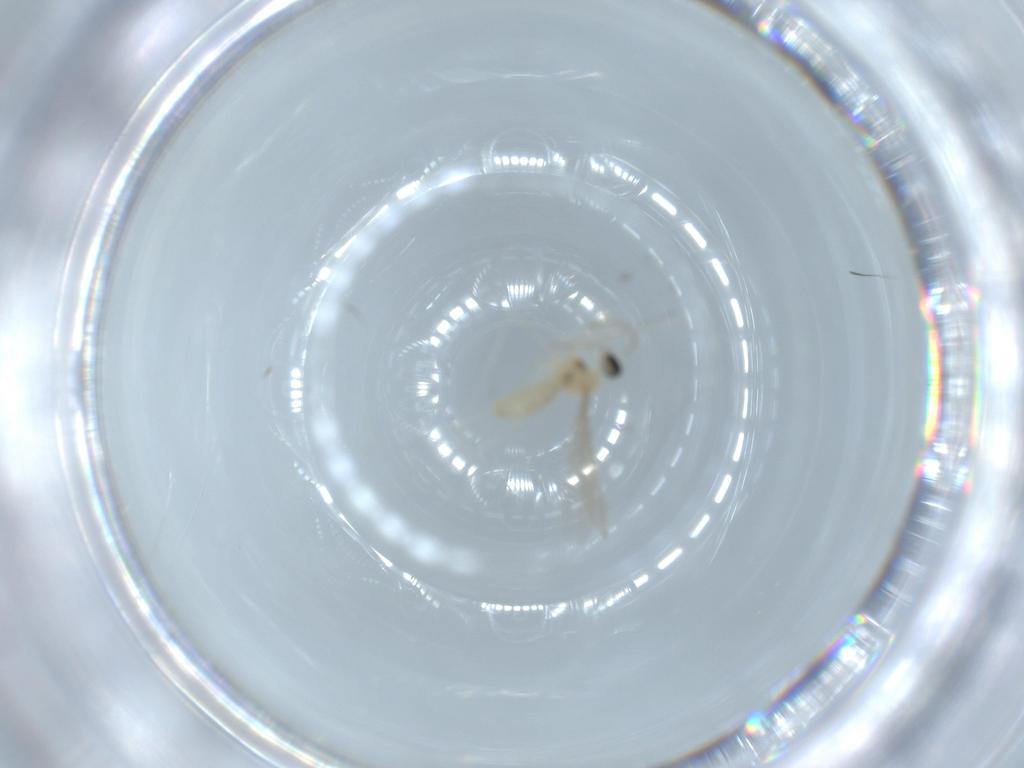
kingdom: Animalia
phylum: Arthropoda
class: Insecta
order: Diptera
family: Cecidomyiidae
